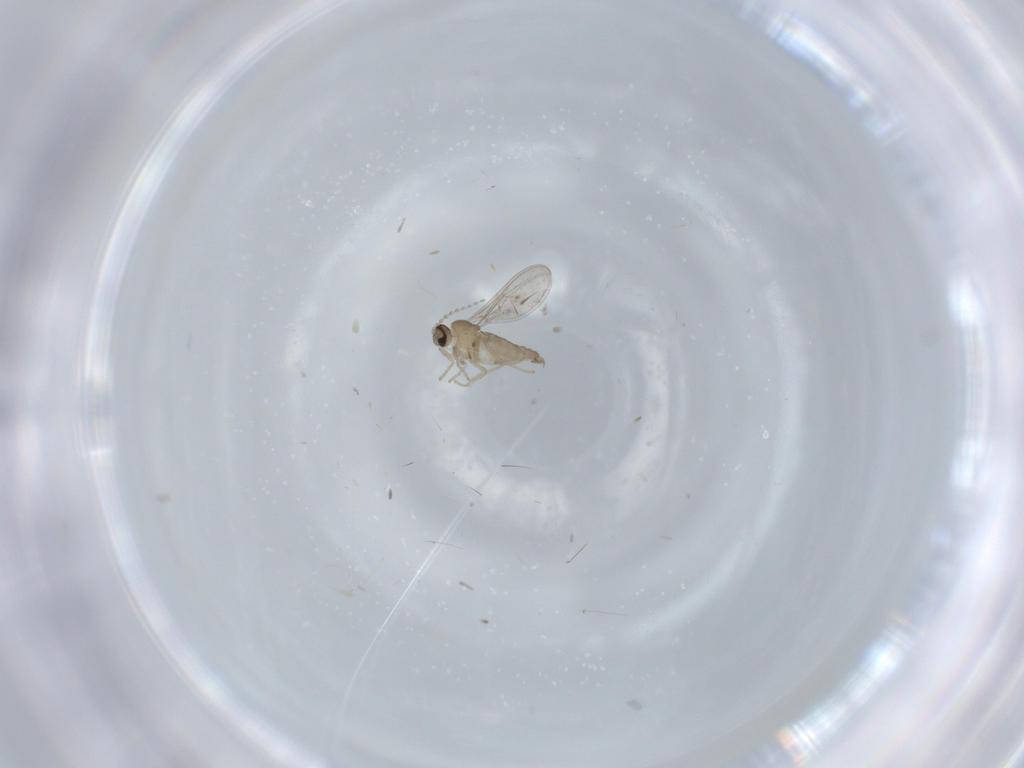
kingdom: Animalia
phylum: Arthropoda
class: Insecta
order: Diptera
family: Cecidomyiidae
